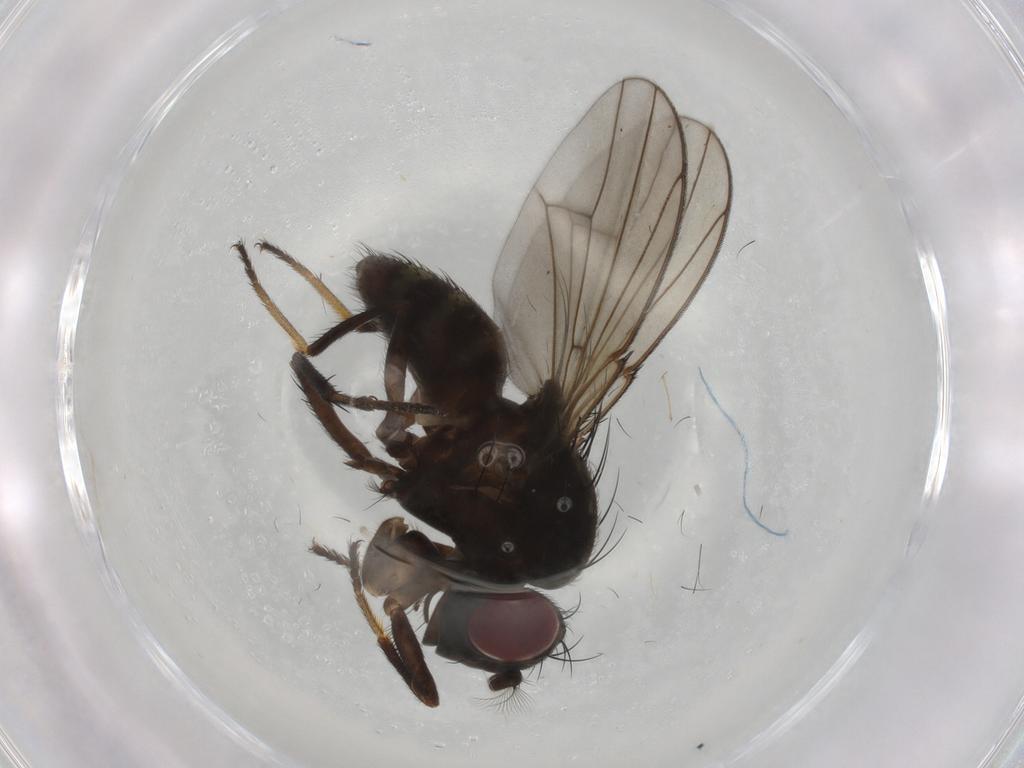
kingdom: Animalia
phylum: Arthropoda
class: Insecta
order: Diptera
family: Ephydridae
